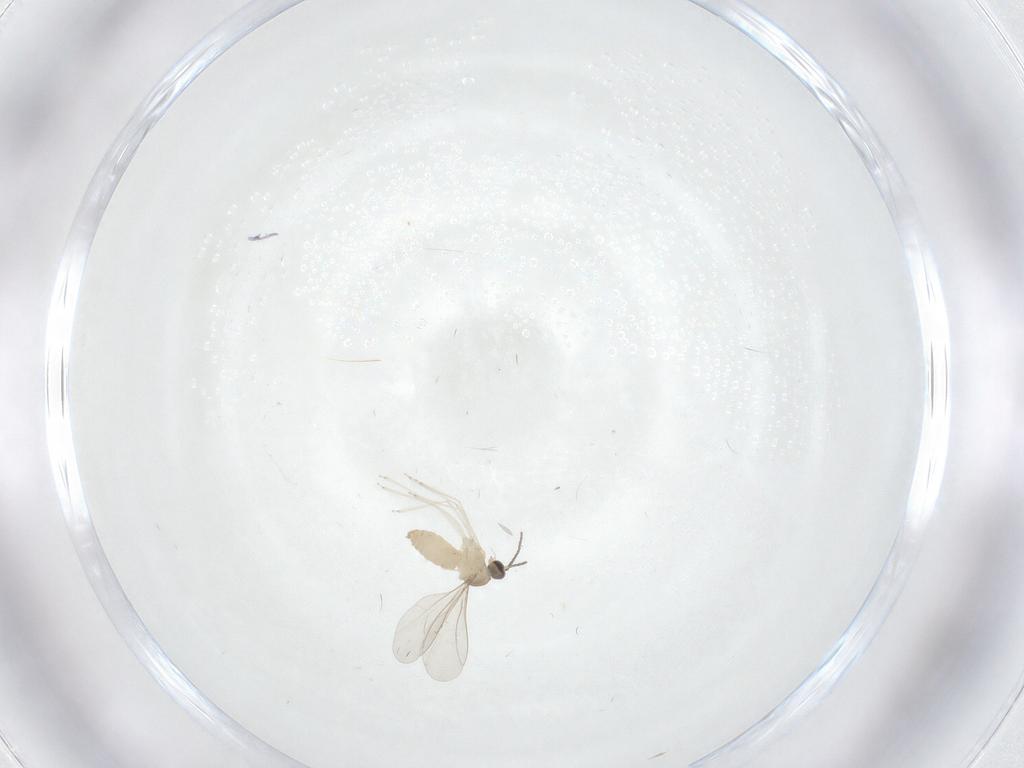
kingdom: Animalia
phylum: Arthropoda
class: Insecta
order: Diptera
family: Cecidomyiidae
